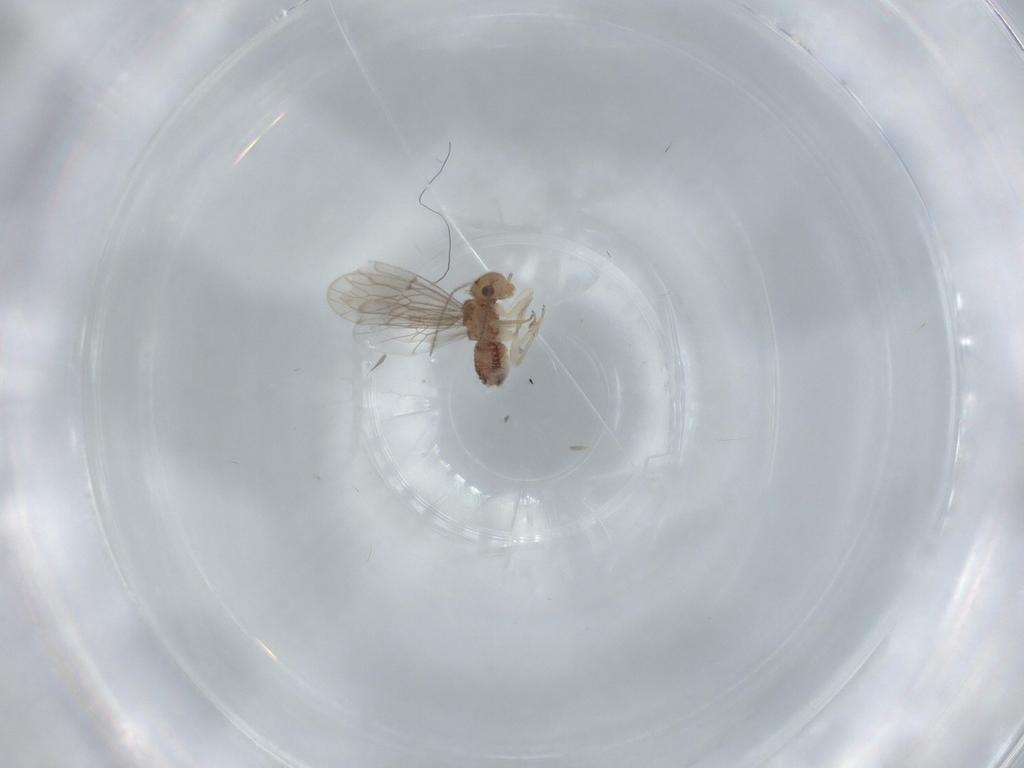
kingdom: Animalia
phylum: Arthropoda
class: Insecta
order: Psocodea
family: Ectopsocidae
